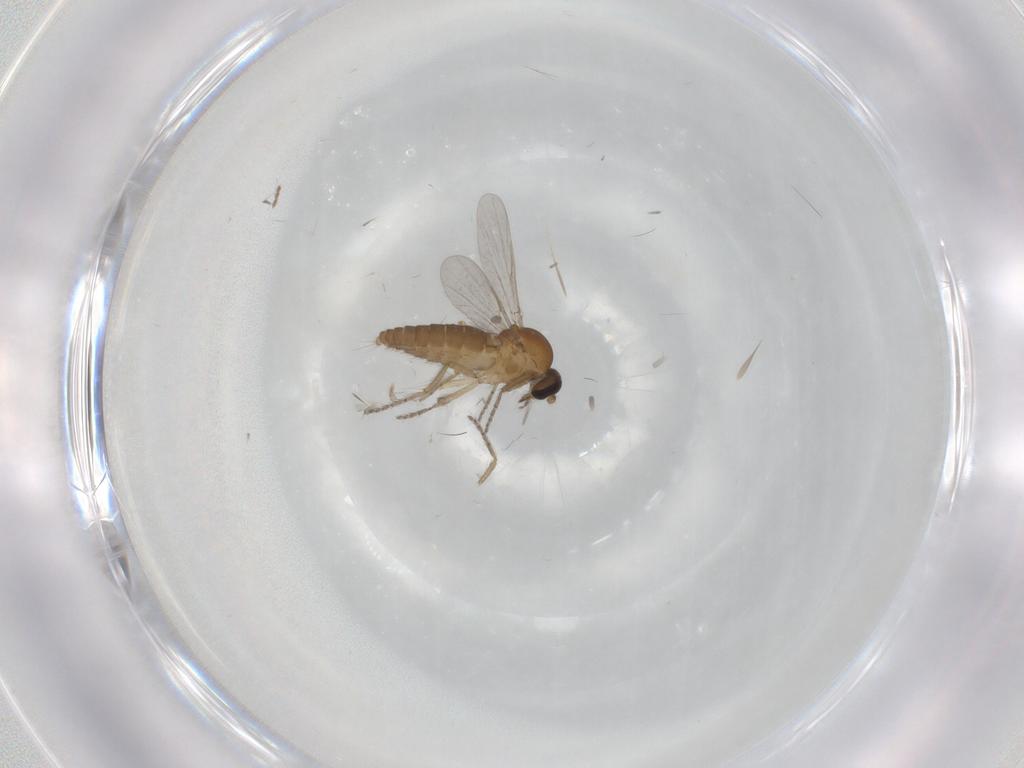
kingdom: Animalia
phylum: Arthropoda
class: Insecta
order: Diptera
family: Ceratopogonidae
